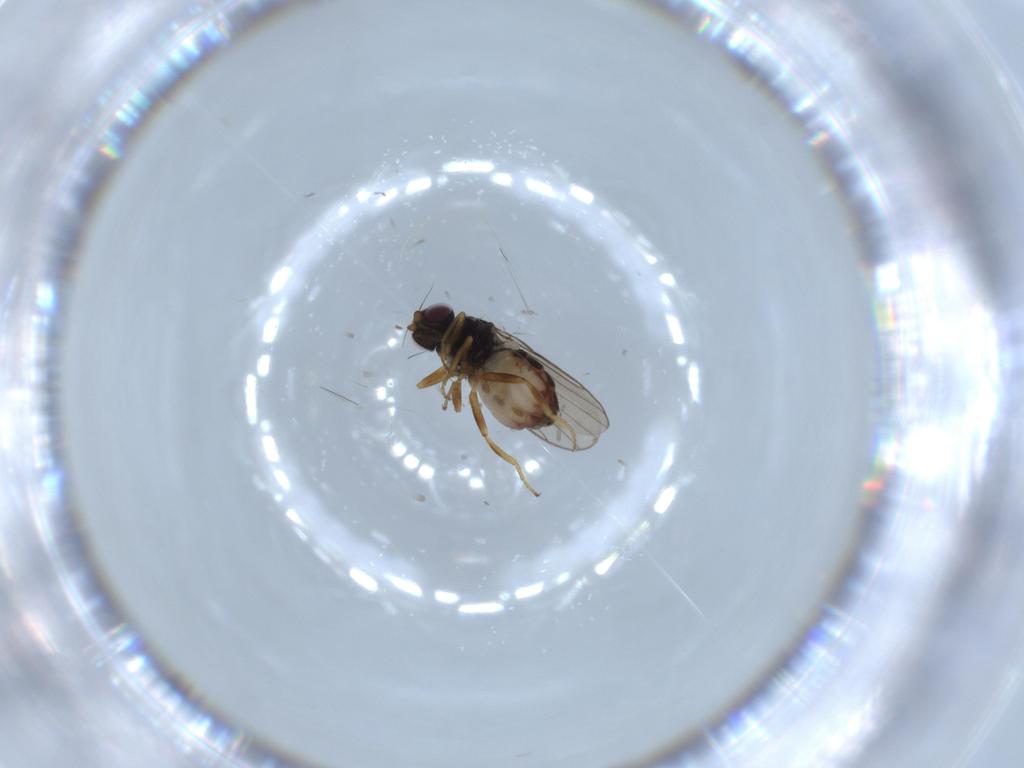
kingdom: Animalia
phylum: Arthropoda
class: Insecta
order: Diptera
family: Chloropidae
